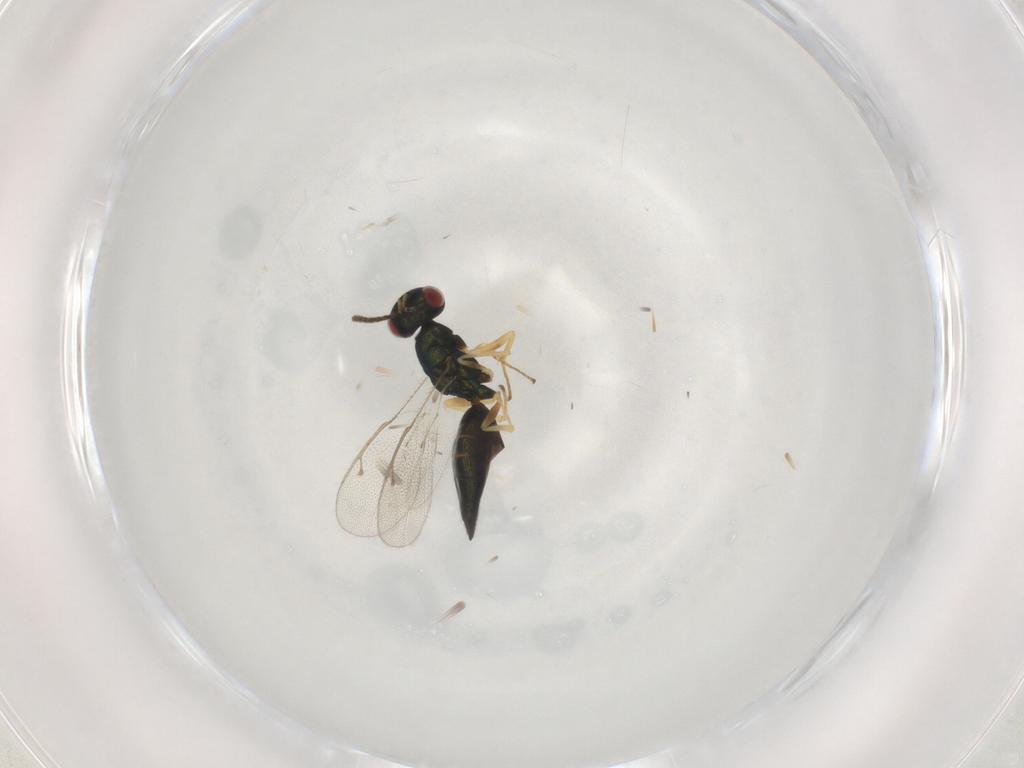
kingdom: Animalia
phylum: Arthropoda
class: Insecta
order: Hymenoptera
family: Pteromalidae
